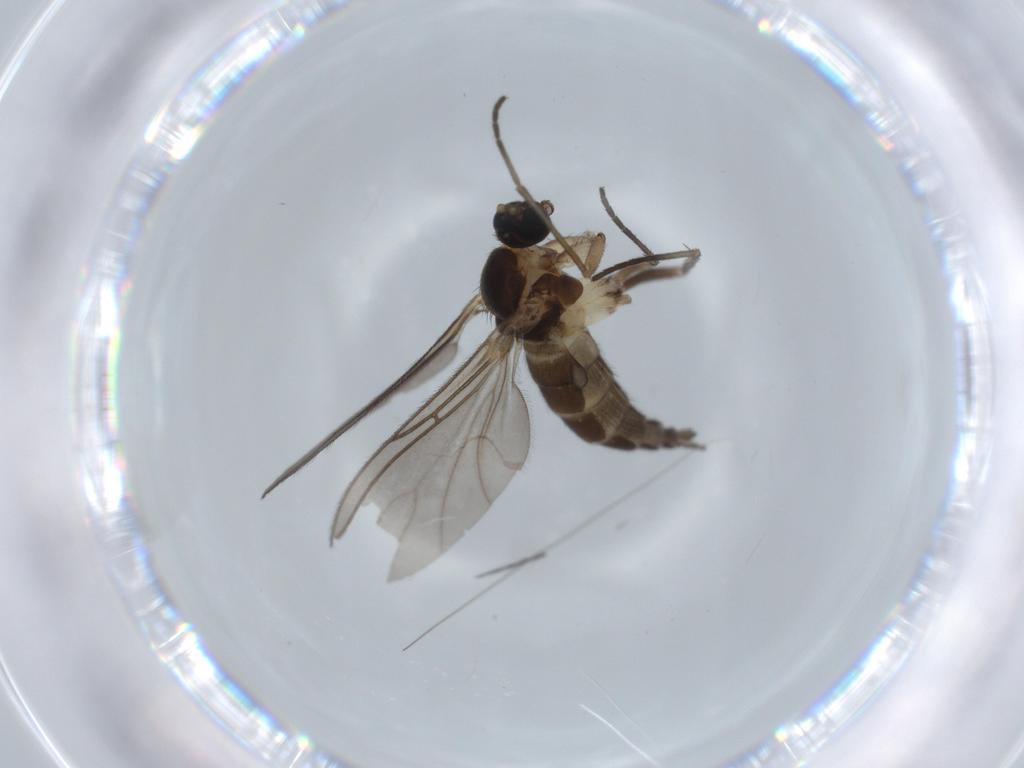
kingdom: Animalia
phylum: Arthropoda
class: Insecta
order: Diptera
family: Sciaridae
